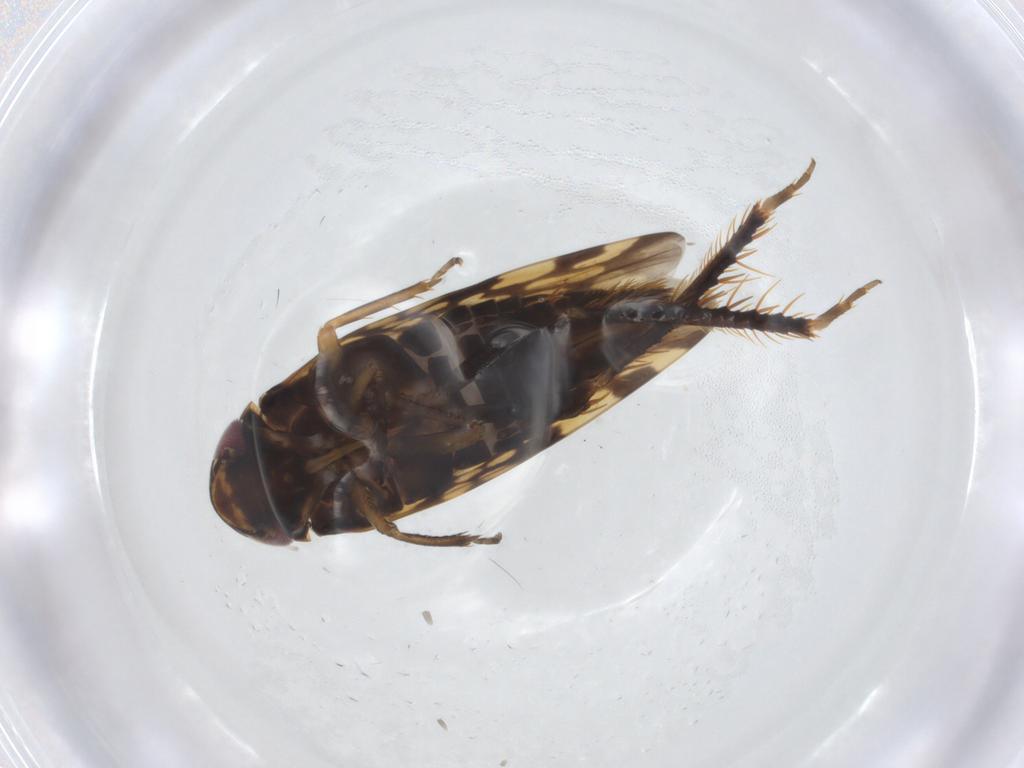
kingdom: Animalia
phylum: Arthropoda
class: Insecta
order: Hemiptera
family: Cicadellidae
